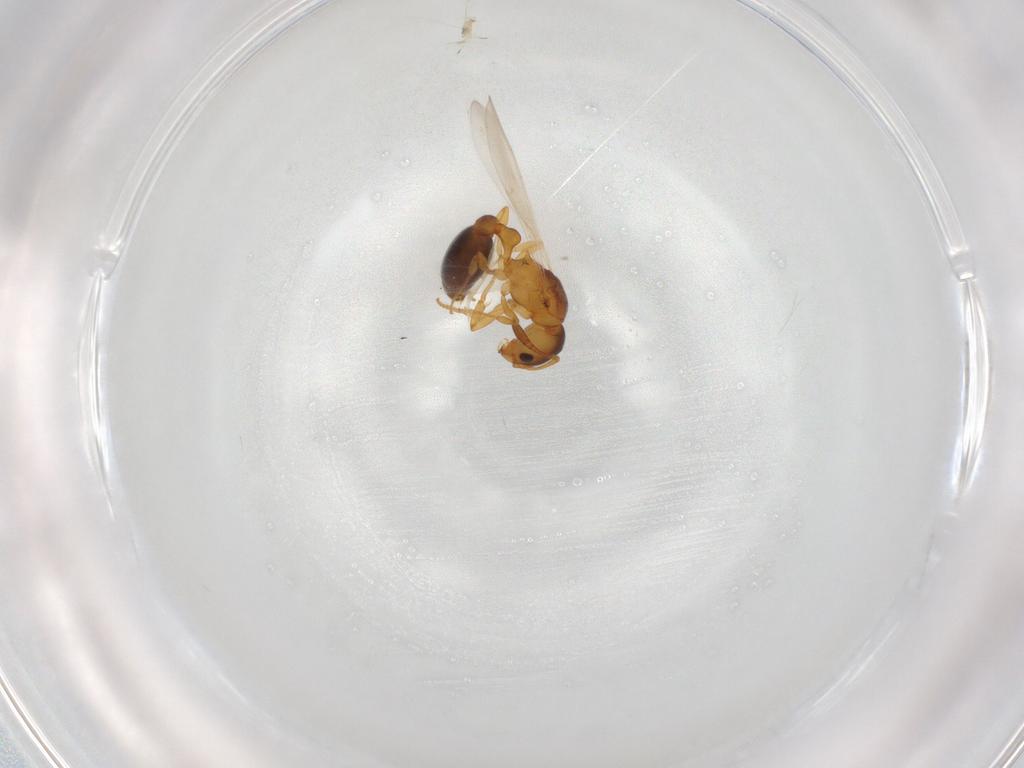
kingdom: Animalia
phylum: Arthropoda
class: Insecta
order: Hymenoptera
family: Formicidae
